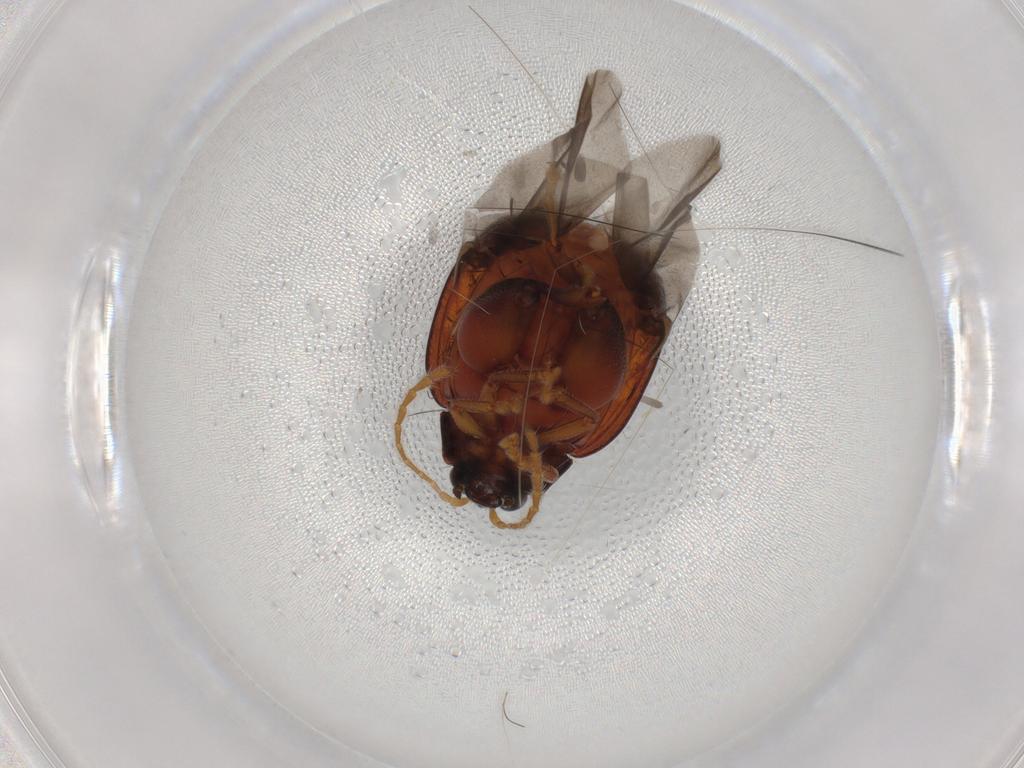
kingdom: Animalia
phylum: Arthropoda
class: Insecta
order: Coleoptera
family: Chrysomelidae
